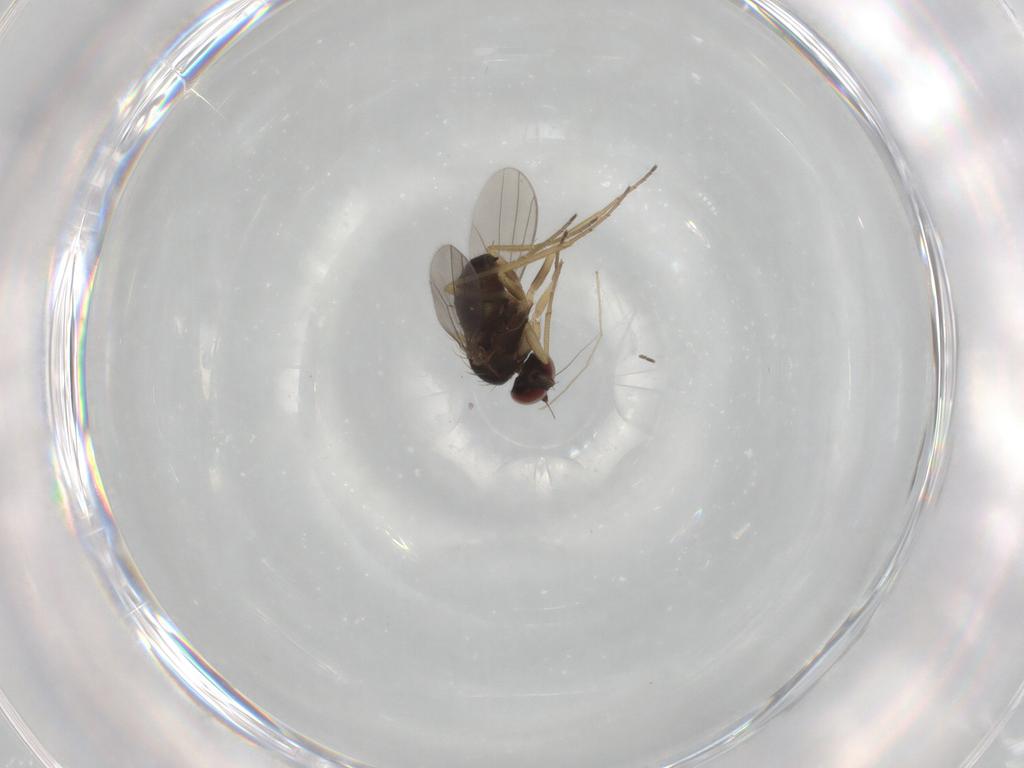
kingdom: Animalia
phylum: Arthropoda
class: Insecta
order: Diptera
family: Dolichopodidae
